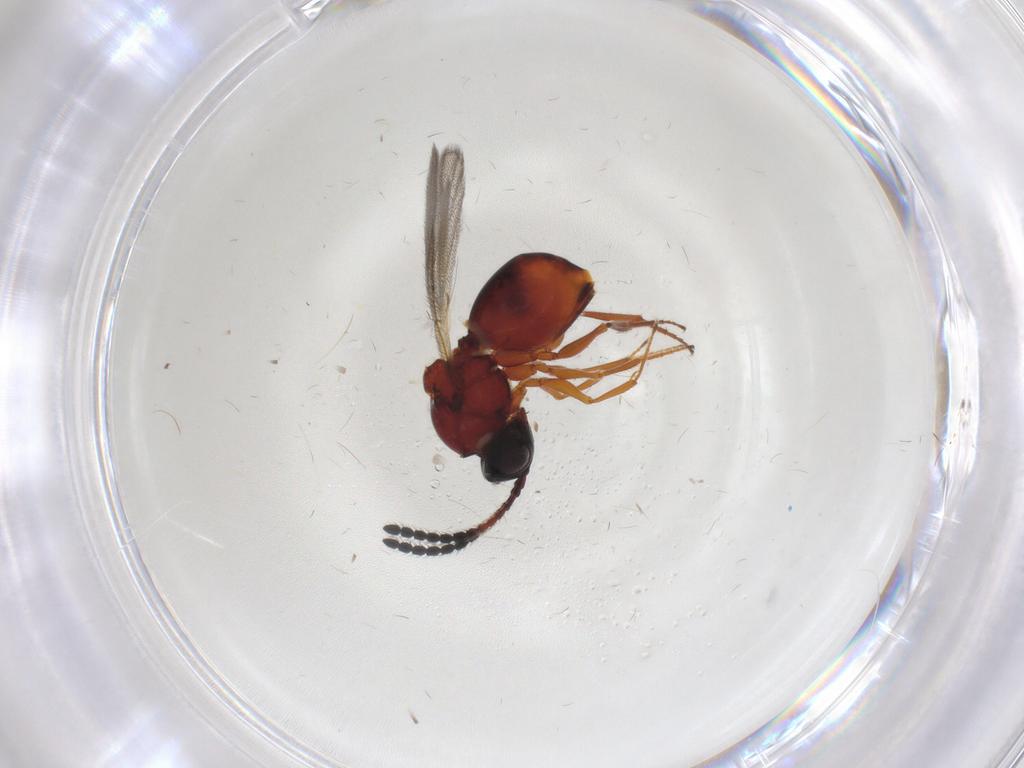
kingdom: Animalia
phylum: Arthropoda
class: Insecta
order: Hymenoptera
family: Figitidae
